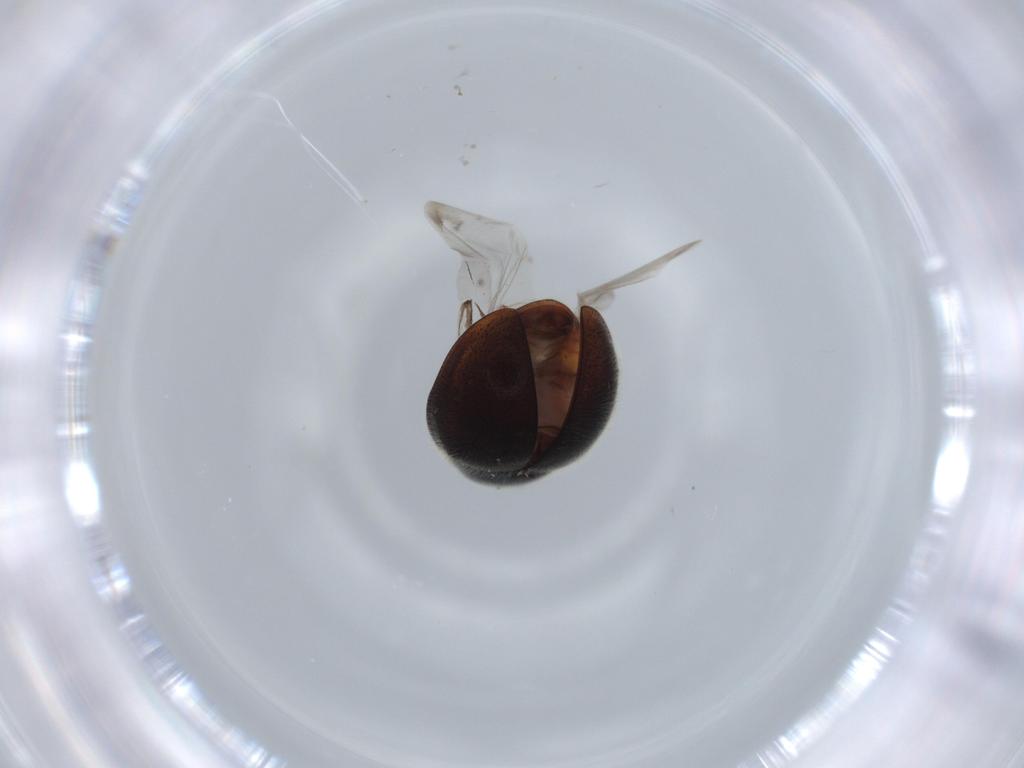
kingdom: Animalia
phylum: Arthropoda
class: Insecta
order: Coleoptera
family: Coccinellidae
